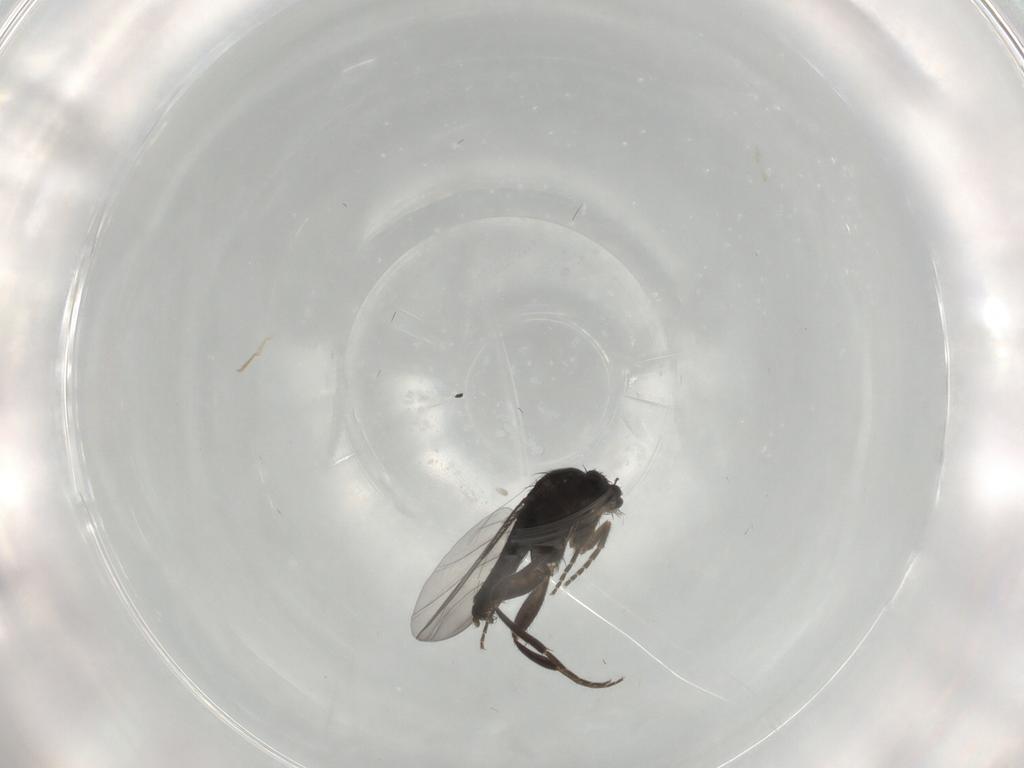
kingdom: Animalia
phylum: Arthropoda
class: Insecta
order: Diptera
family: Phoridae
